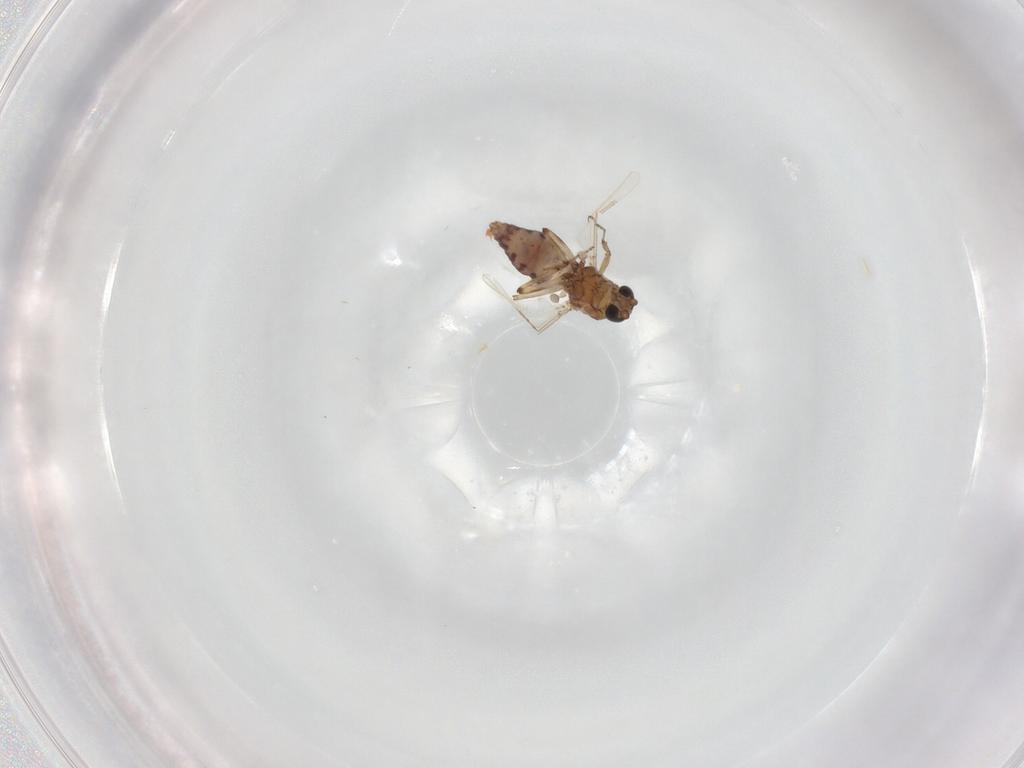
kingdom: Animalia
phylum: Arthropoda
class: Insecta
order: Diptera
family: Ceratopogonidae
